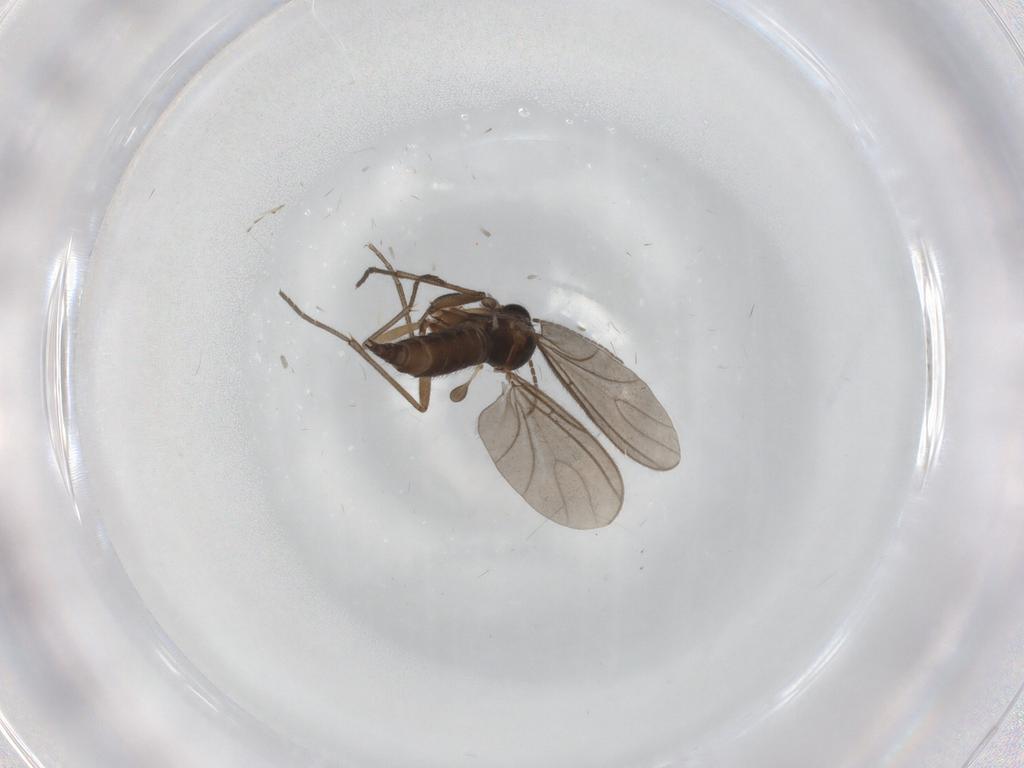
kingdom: Animalia
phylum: Arthropoda
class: Insecta
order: Diptera
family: Sciaridae
